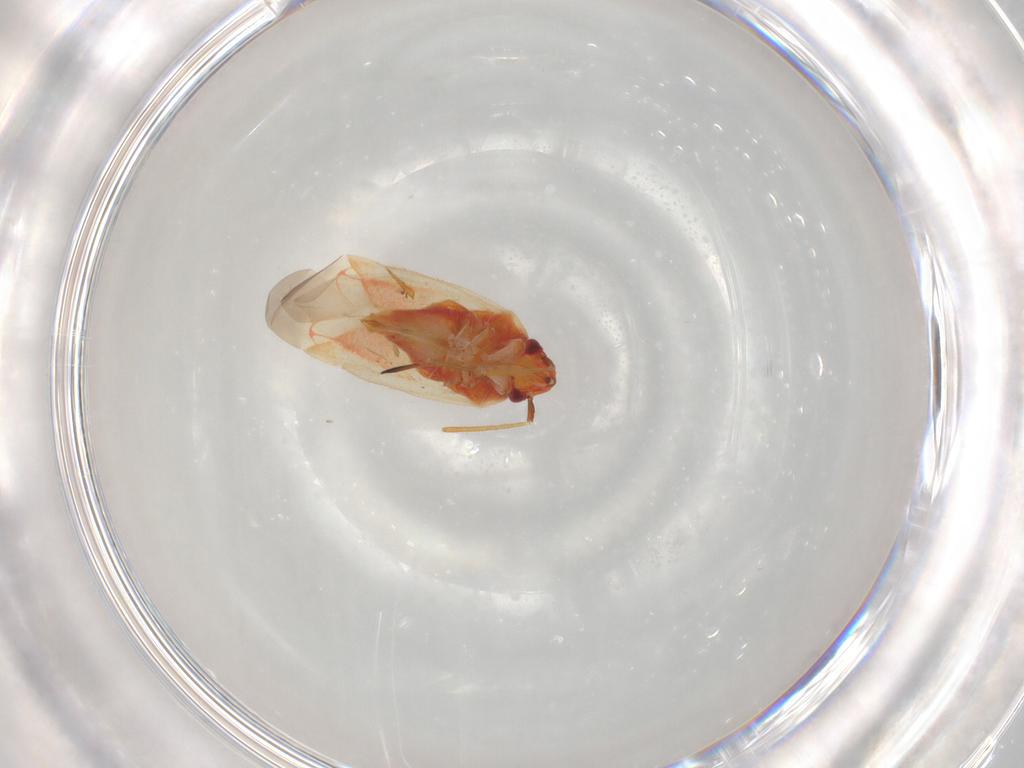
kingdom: Animalia
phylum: Arthropoda
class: Insecta
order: Hemiptera
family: Miridae
